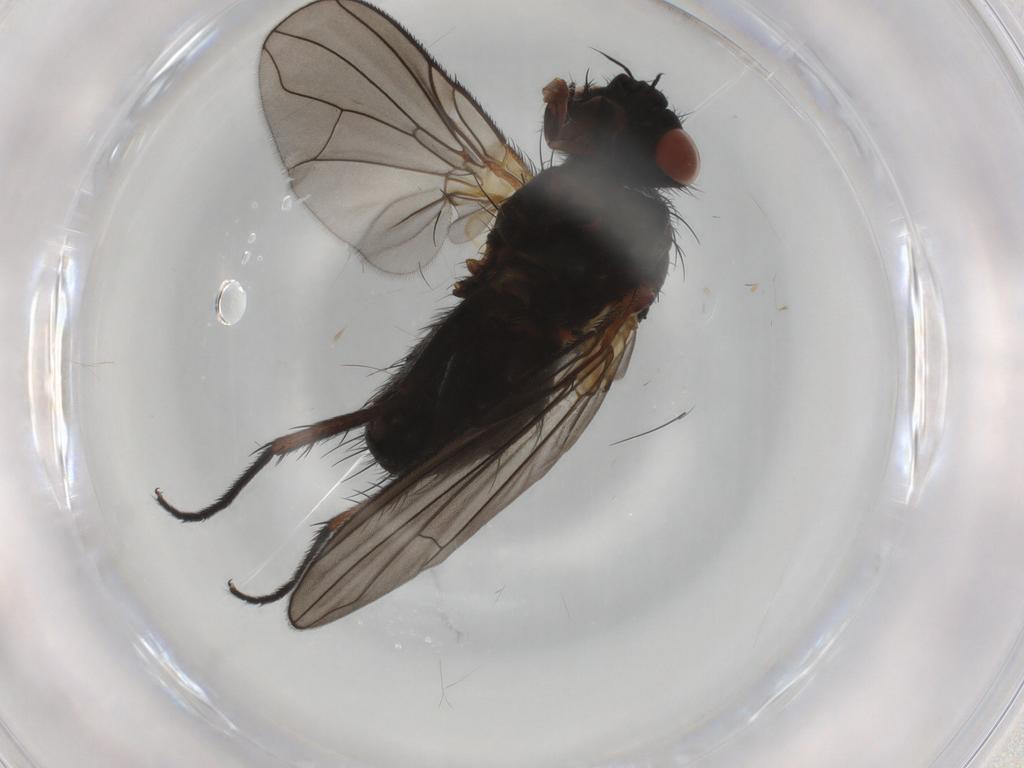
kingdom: Animalia
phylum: Arthropoda
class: Insecta
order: Diptera
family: Tachinidae
